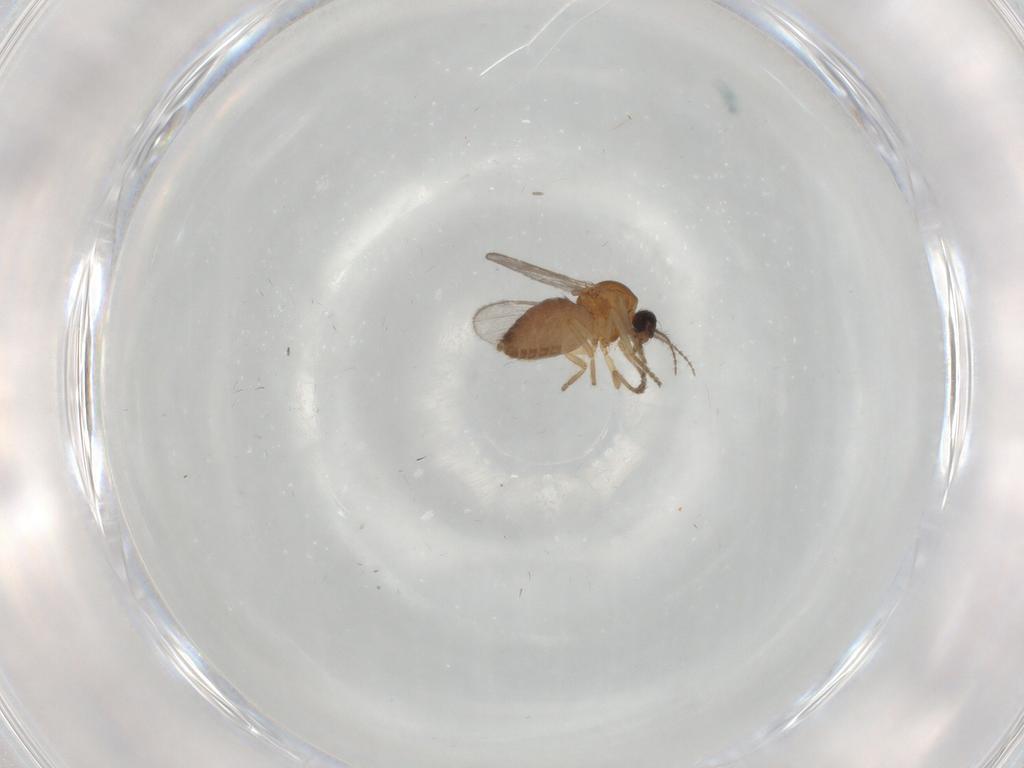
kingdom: Animalia
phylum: Arthropoda
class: Insecta
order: Diptera
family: Ceratopogonidae
